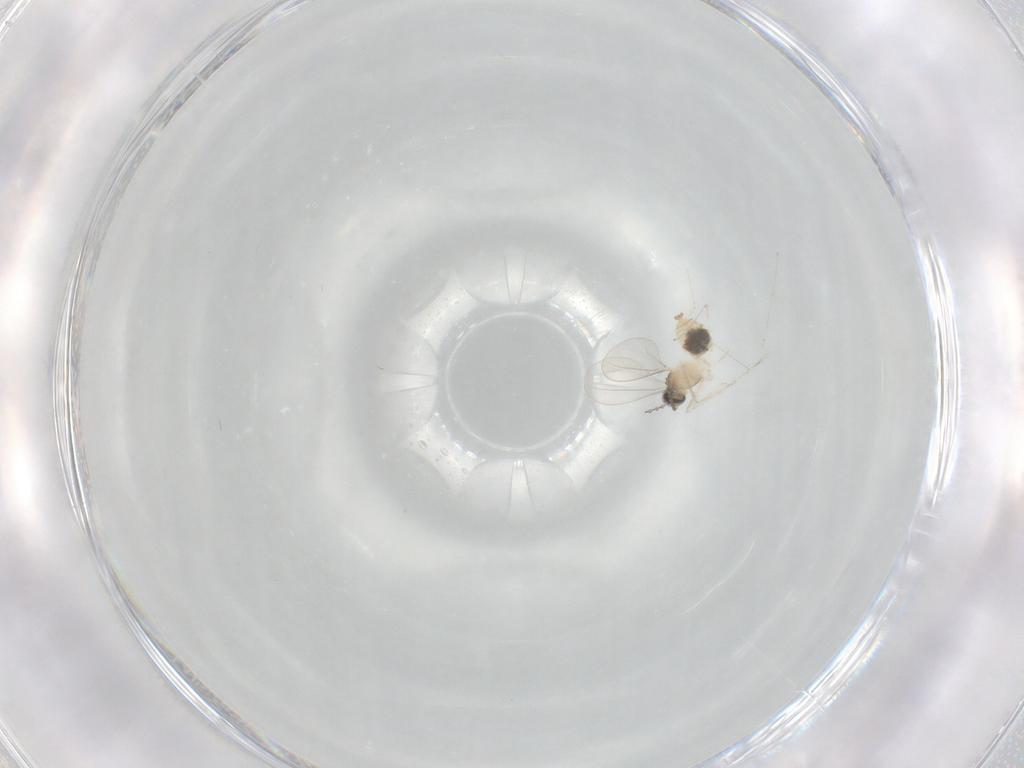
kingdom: Animalia
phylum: Arthropoda
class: Insecta
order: Diptera
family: Cecidomyiidae
